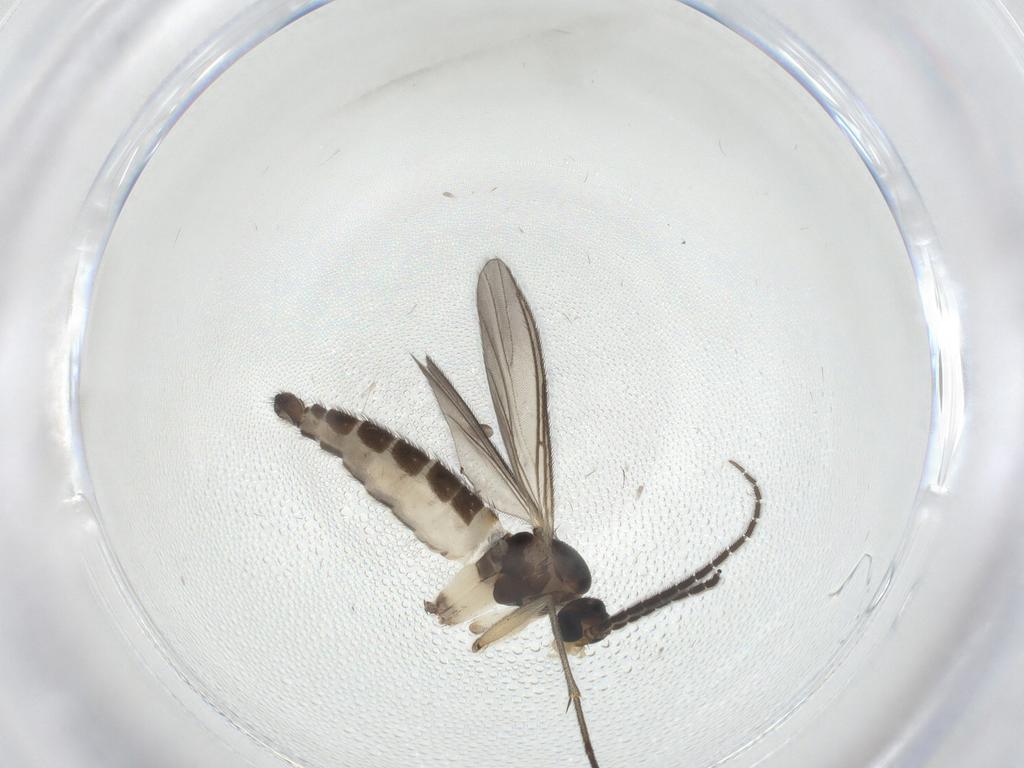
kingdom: Animalia
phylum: Arthropoda
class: Insecta
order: Diptera
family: Sciaridae
